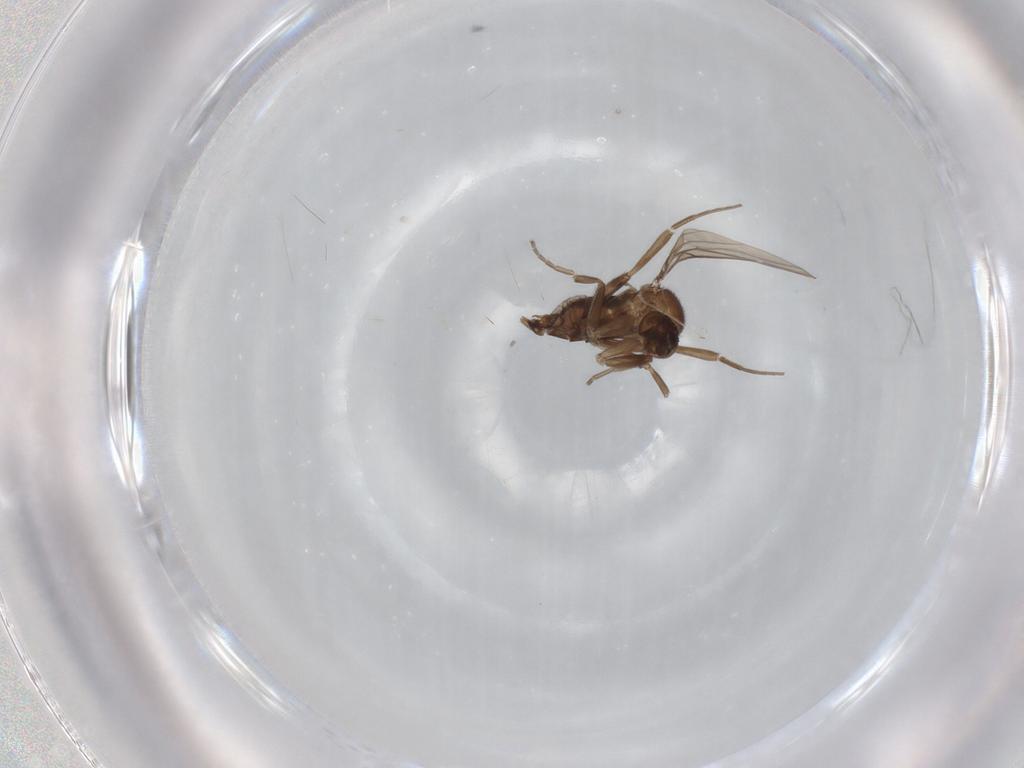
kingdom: Animalia
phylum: Arthropoda
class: Insecta
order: Diptera
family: Phoridae
